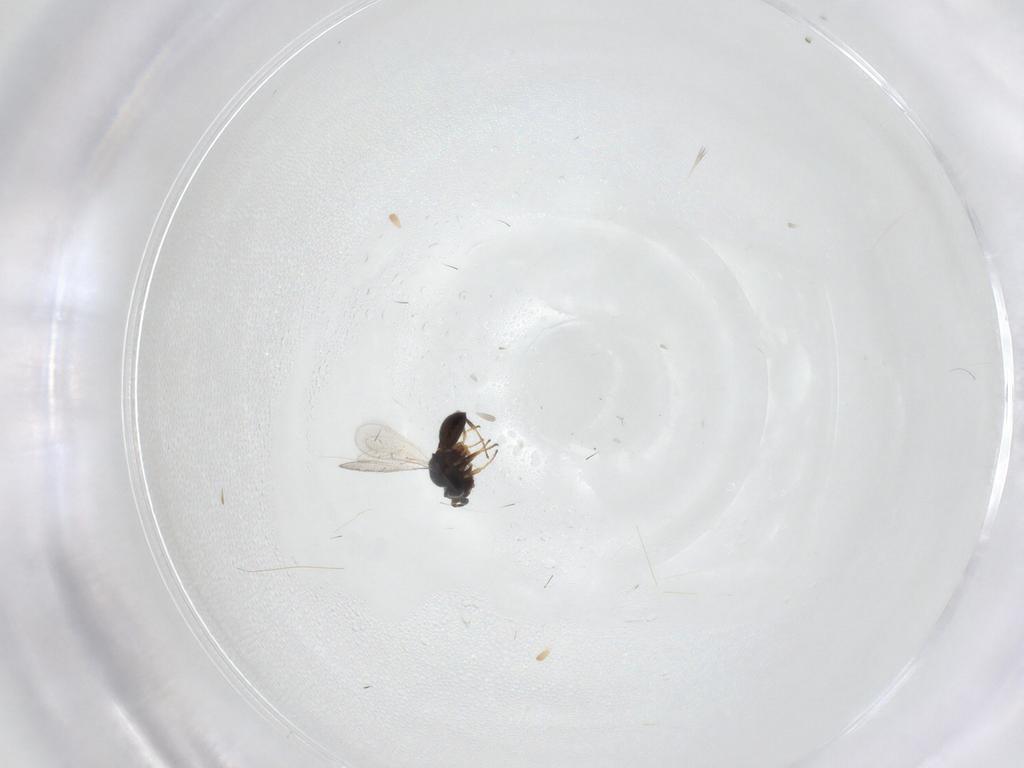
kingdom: Animalia
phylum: Arthropoda
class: Insecta
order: Hymenoptera
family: Scelionidae
